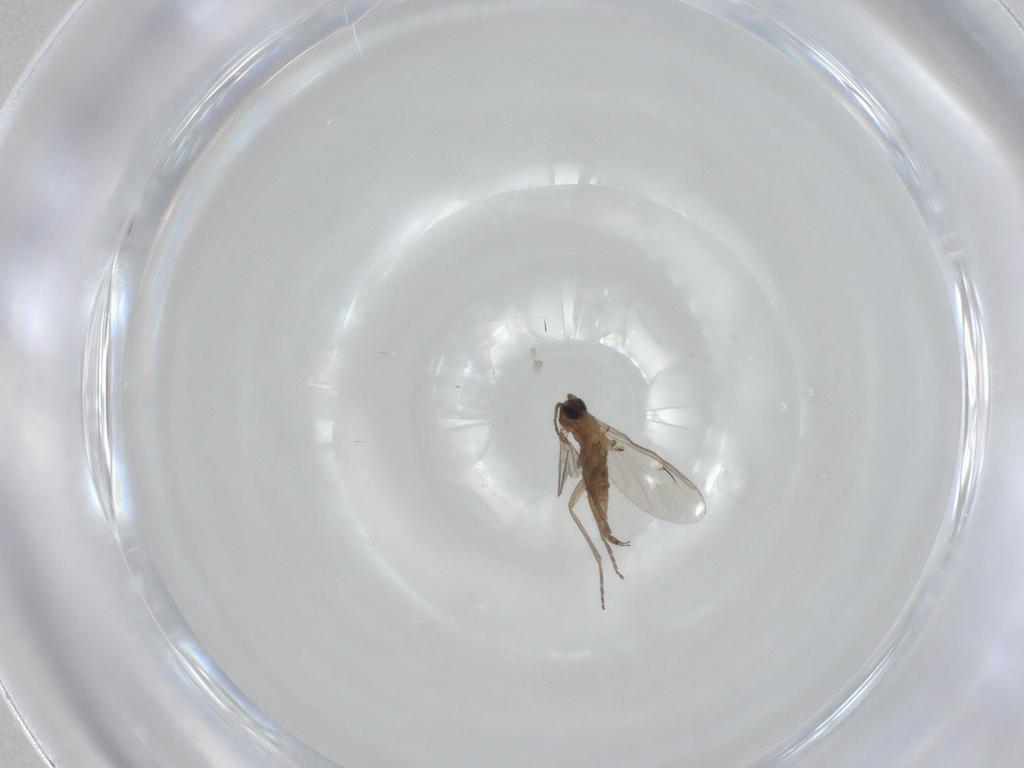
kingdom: Animalia
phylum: Arthropoda
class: Insecta
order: Diptera
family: Sciaridae
